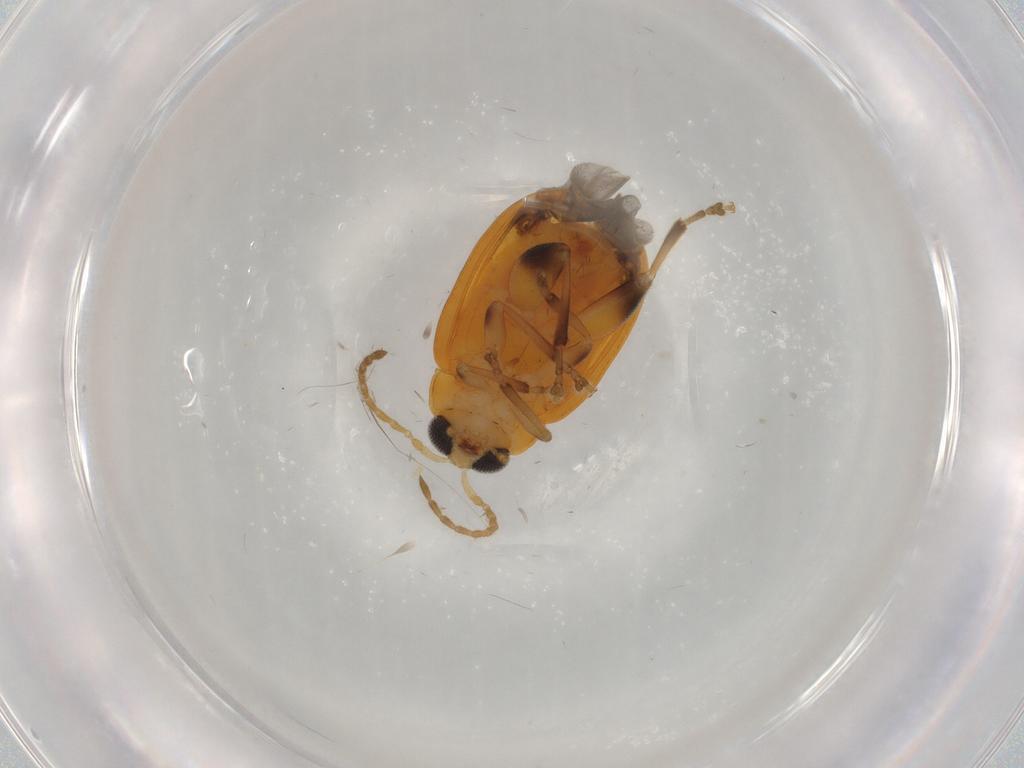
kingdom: Animalia
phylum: Arthropoda
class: Insecta
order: Coleoptera
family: Chrysomelidae
